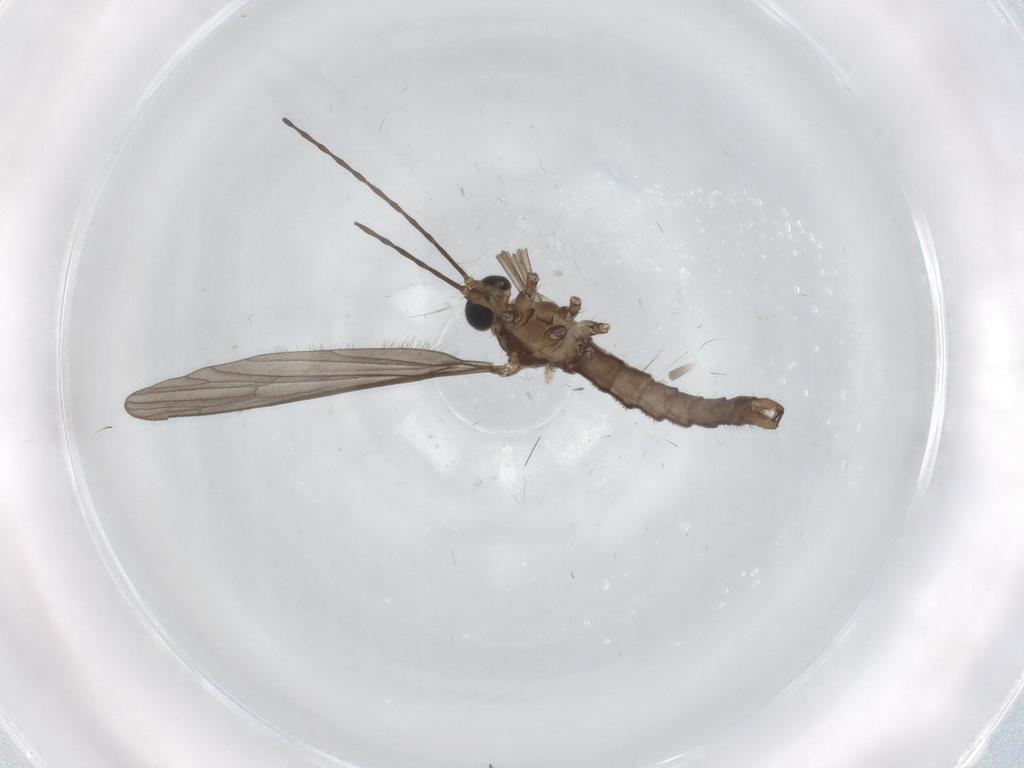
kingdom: Animalia
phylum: Arthropoda
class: Insecta
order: Diptera
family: Limoniidae
